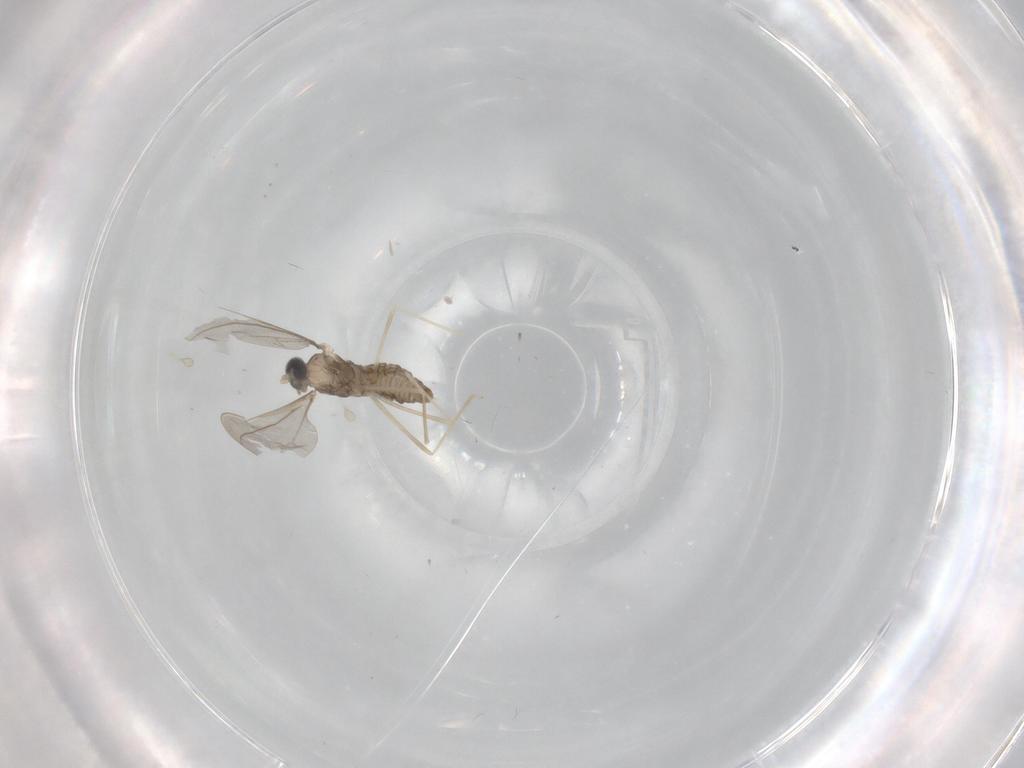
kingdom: Animalia
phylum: Arthropoda
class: Insecta
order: Diptera
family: Cecidomyiidae
